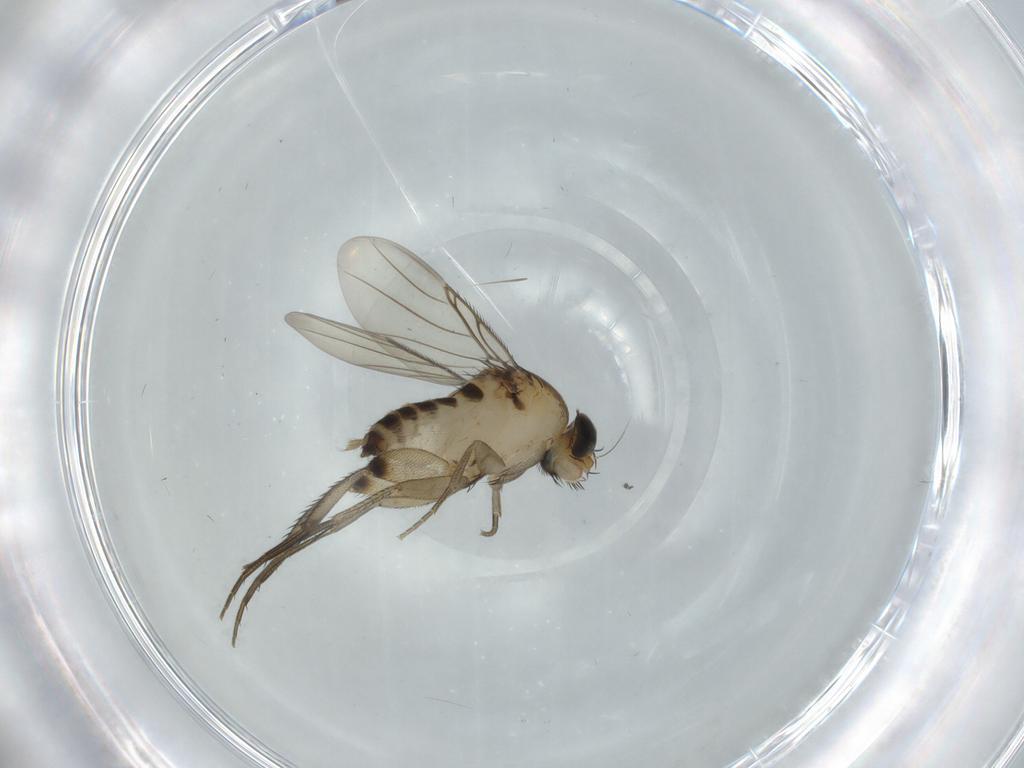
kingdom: Animalia
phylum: Arthropoda
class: Insecta
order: Diptera
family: Phoridae
